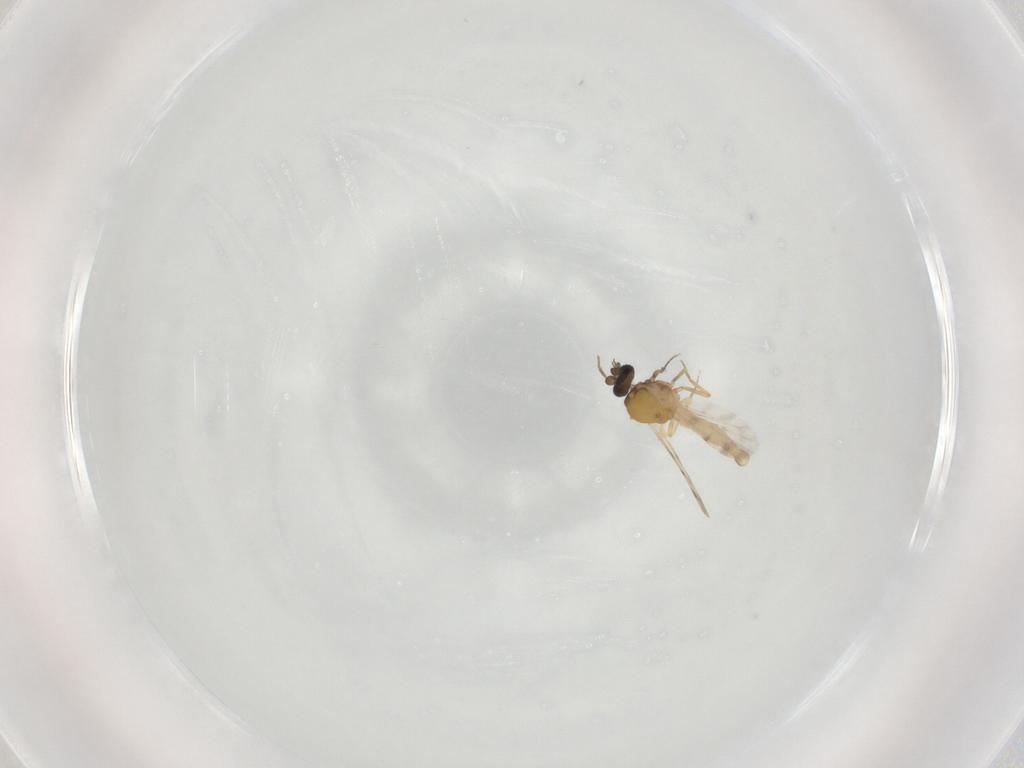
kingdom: Animalia
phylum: Arthropoda
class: Insecta
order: Diptera
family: Ceratopogonidae
